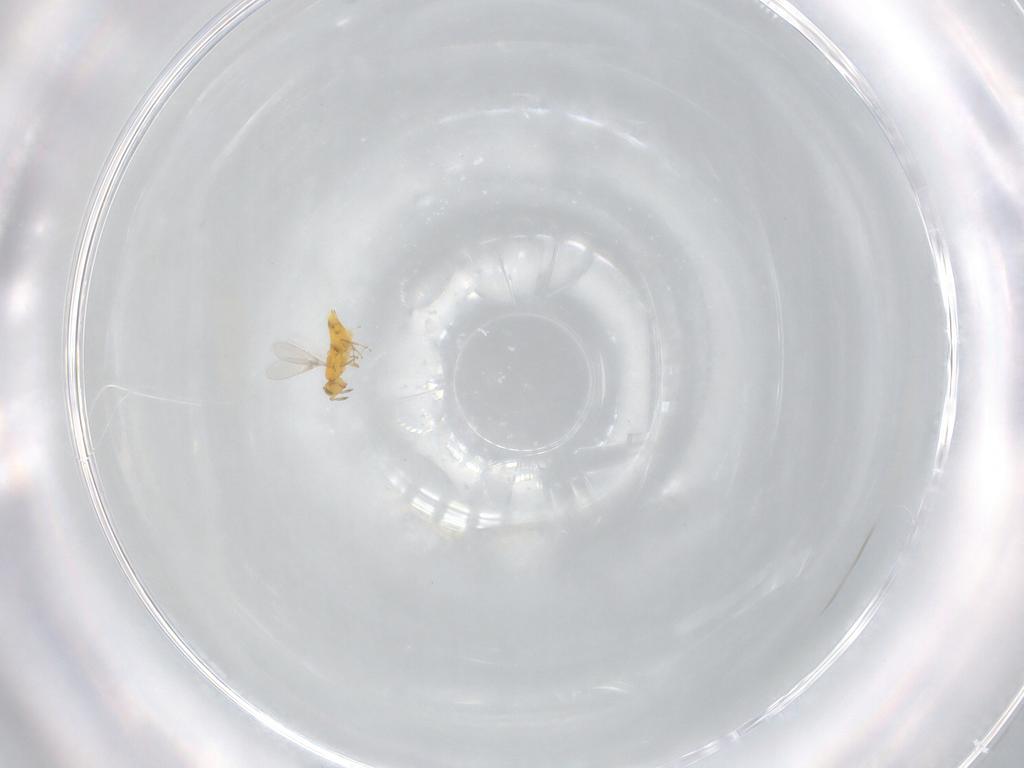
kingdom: Animalia
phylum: Arthropoda
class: Insecta
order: Hymenoptera
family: Aphelinidae
